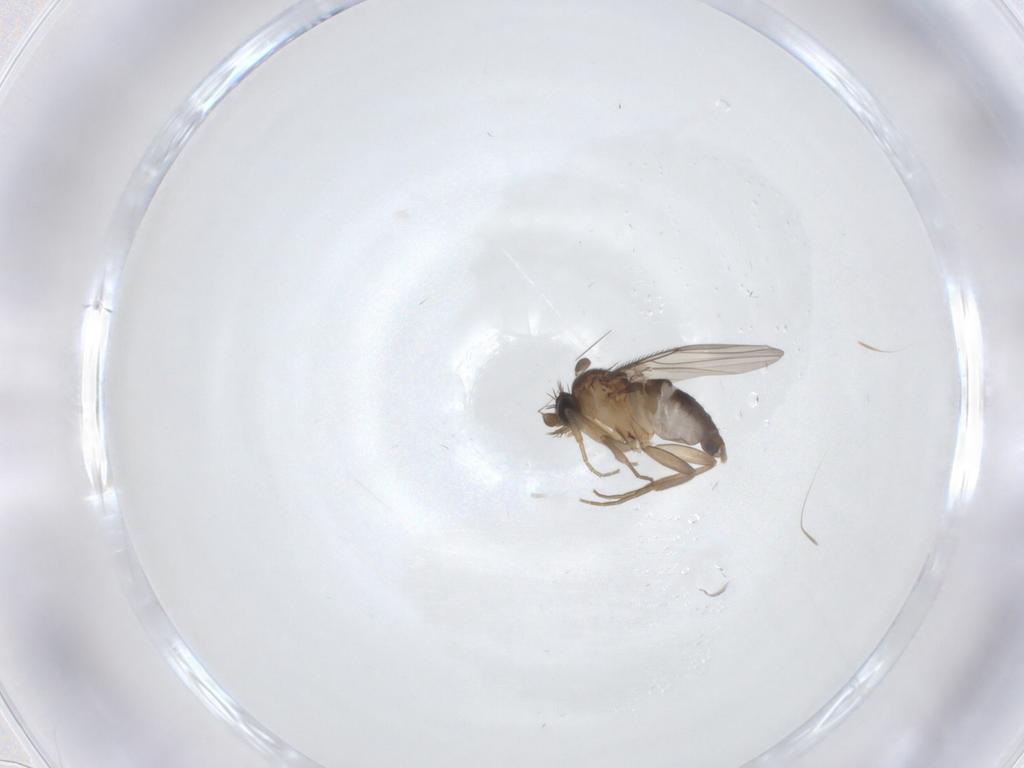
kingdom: Animalia
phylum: Arthropoda
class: Insecta
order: Diptera
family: Phoridae
